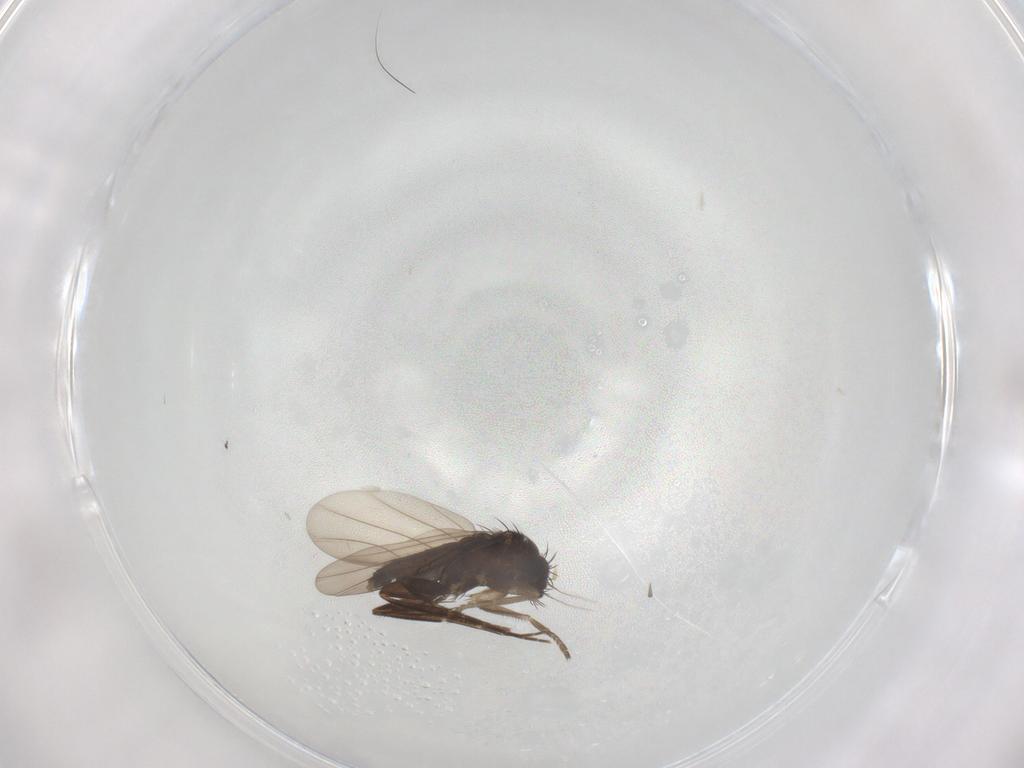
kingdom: Animalia
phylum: Arthropoda
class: Insecta
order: Diptera
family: Phoridae
